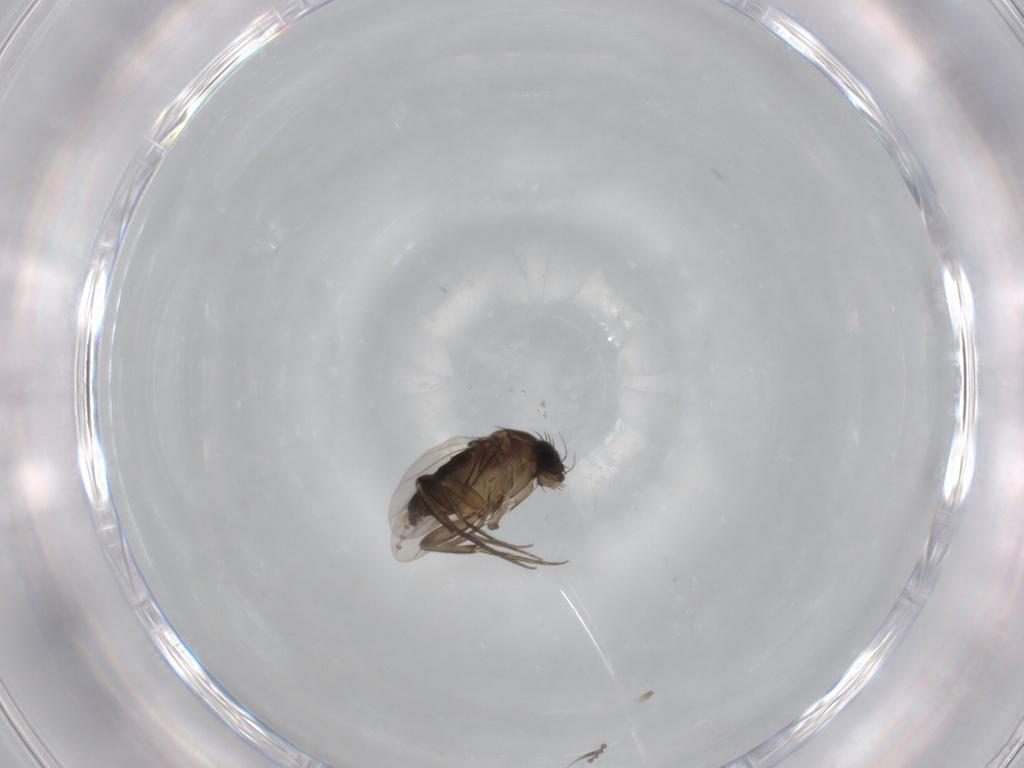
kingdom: Animalia
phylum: Arthropoda
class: Insecta
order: Diptera
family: Phoridae
